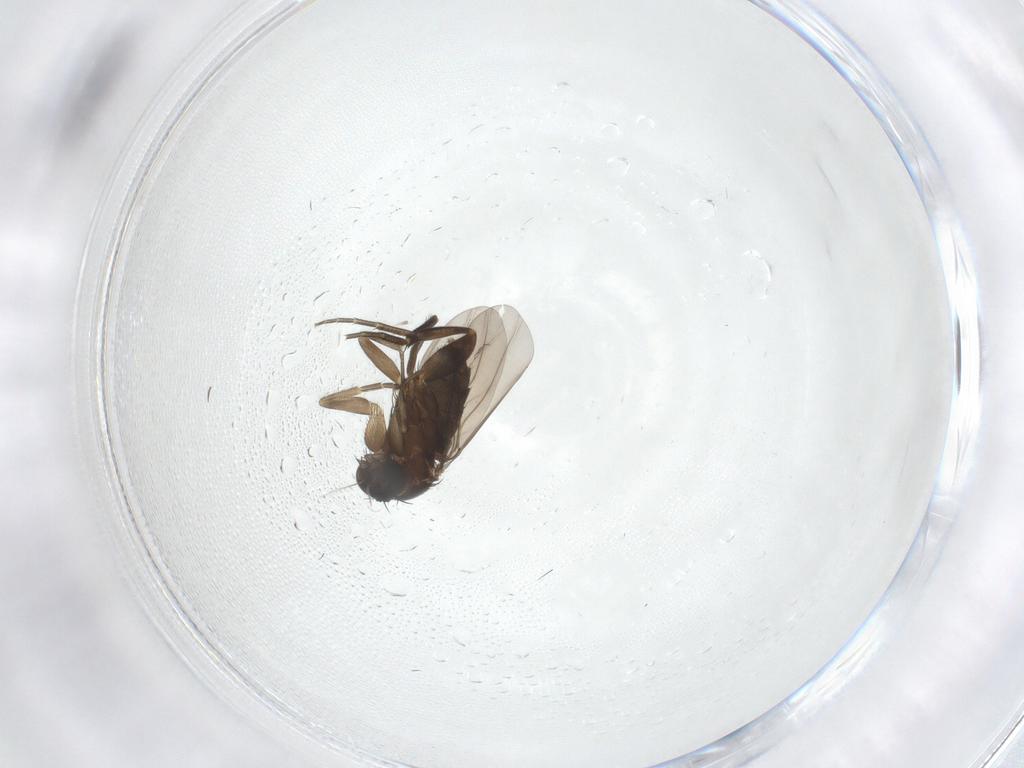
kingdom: Animalia
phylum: Arthropoda
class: Insecta
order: Diptera
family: Phoridae
